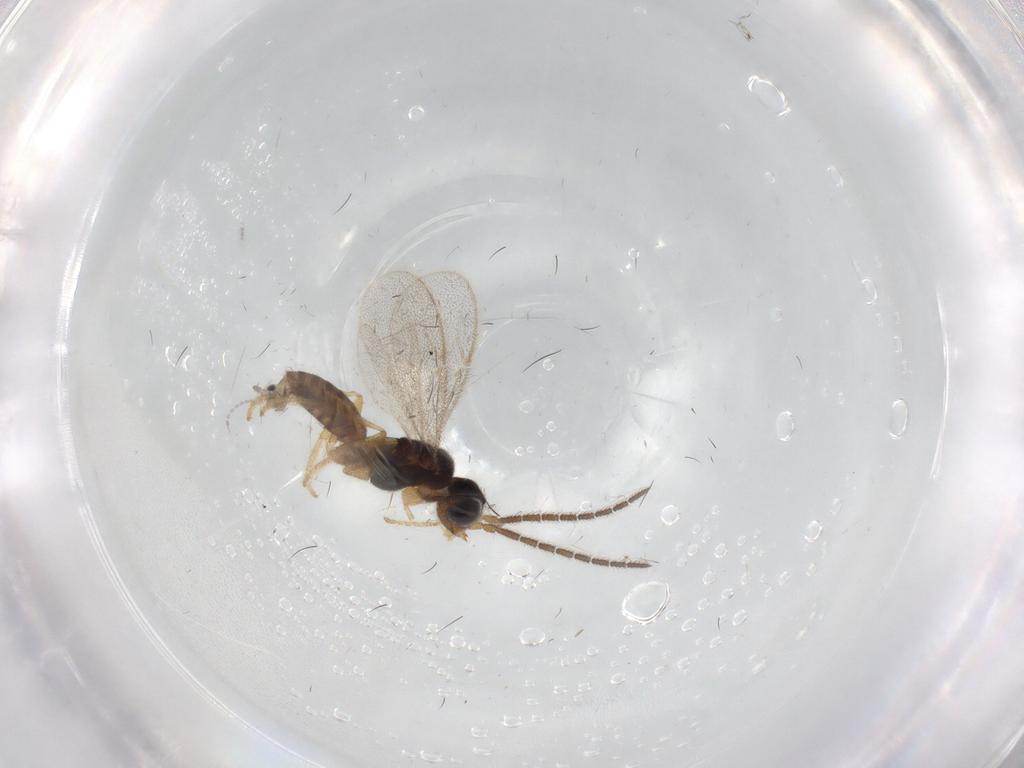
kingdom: Animalia
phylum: Arthropoda
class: Insecta
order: Hymenoptera
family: Dryinidae
